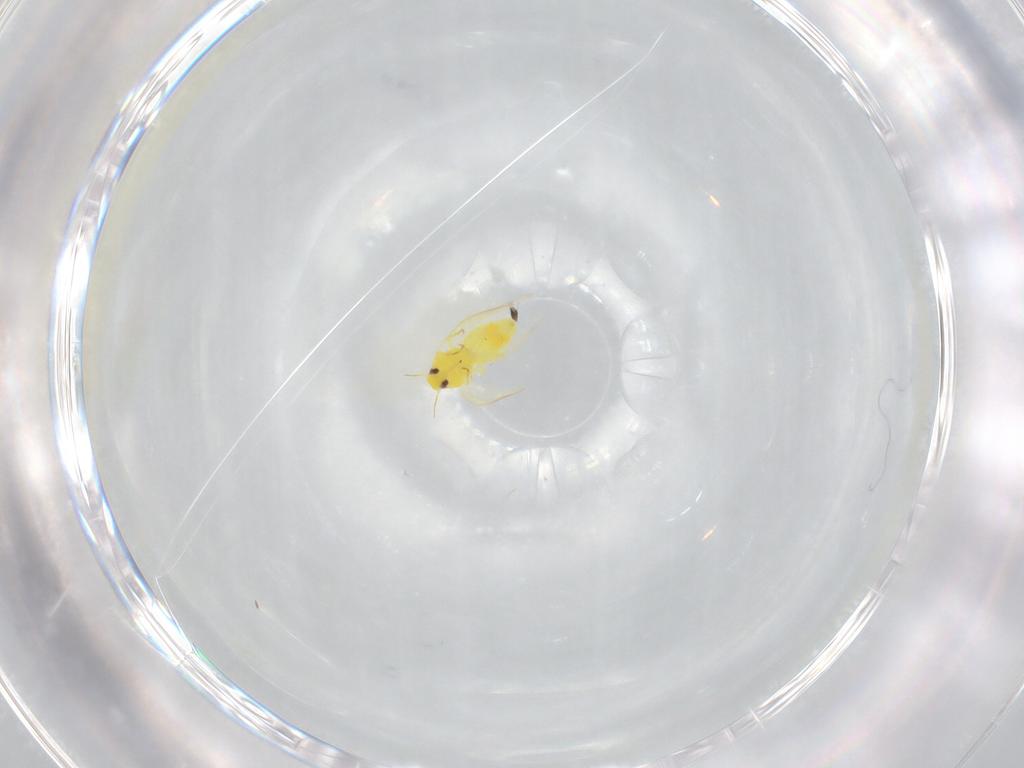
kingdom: Animalia
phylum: Arthropoda
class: Insecta
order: Hemiptera
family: Aleyrodidae
